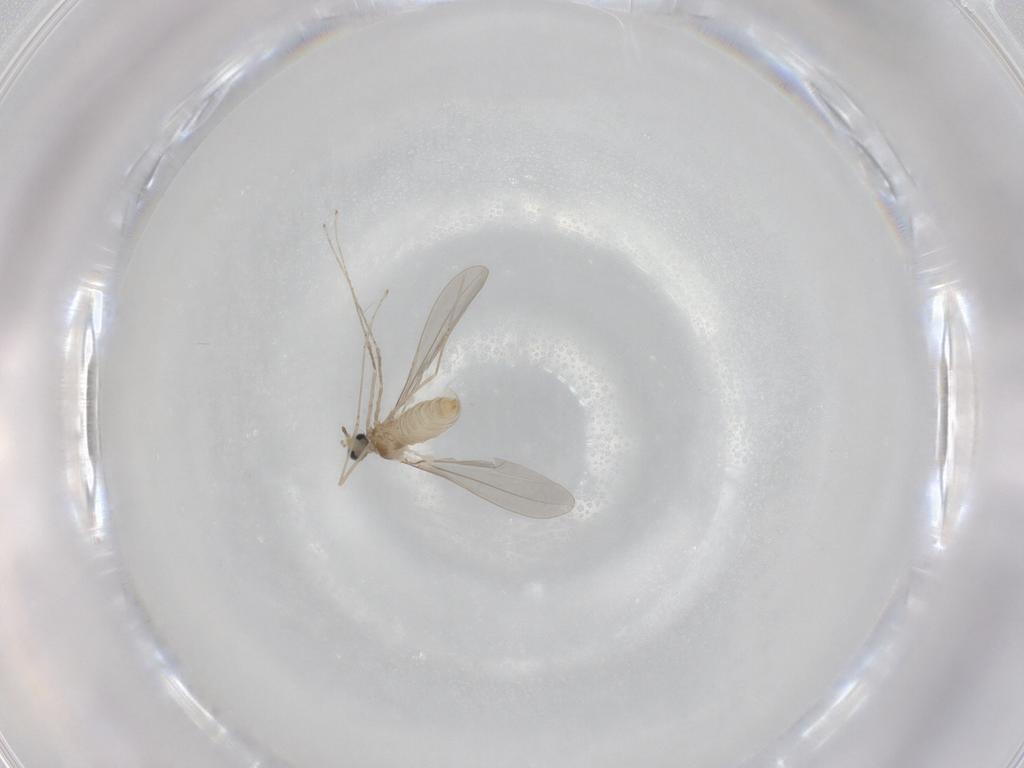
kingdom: Animalia
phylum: Arthropoda
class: Insecta
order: Diptera
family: Cecidomyiidae
